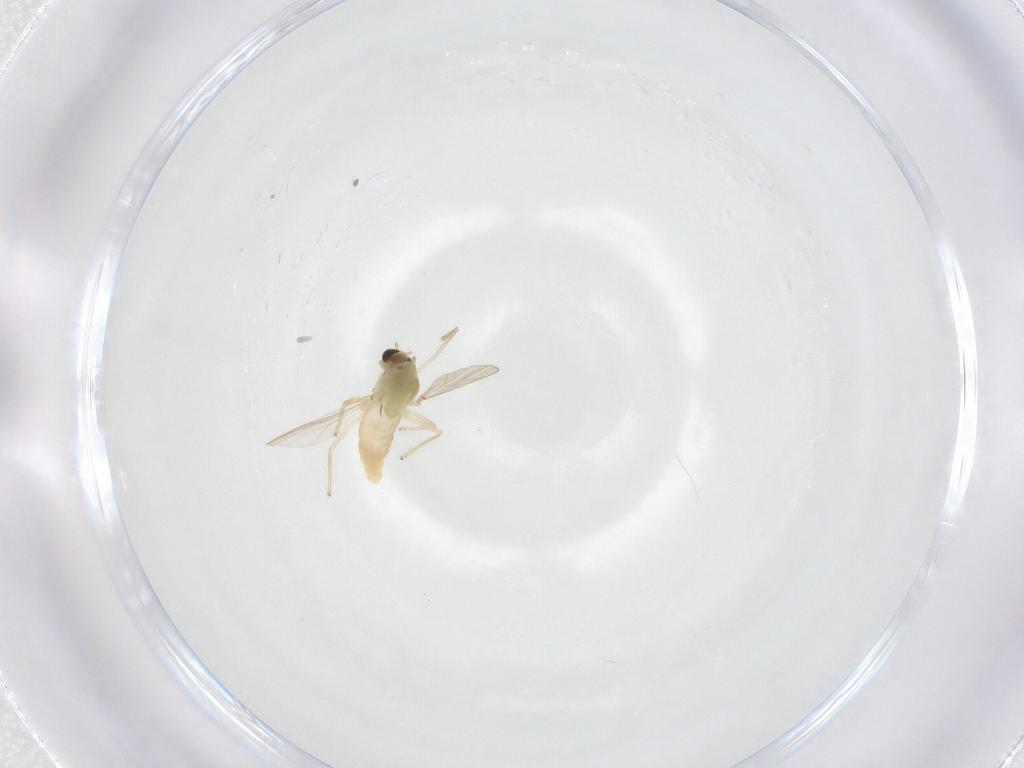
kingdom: Animalia
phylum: Arthropoda
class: Insecta
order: Diptera
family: Chironomidae
